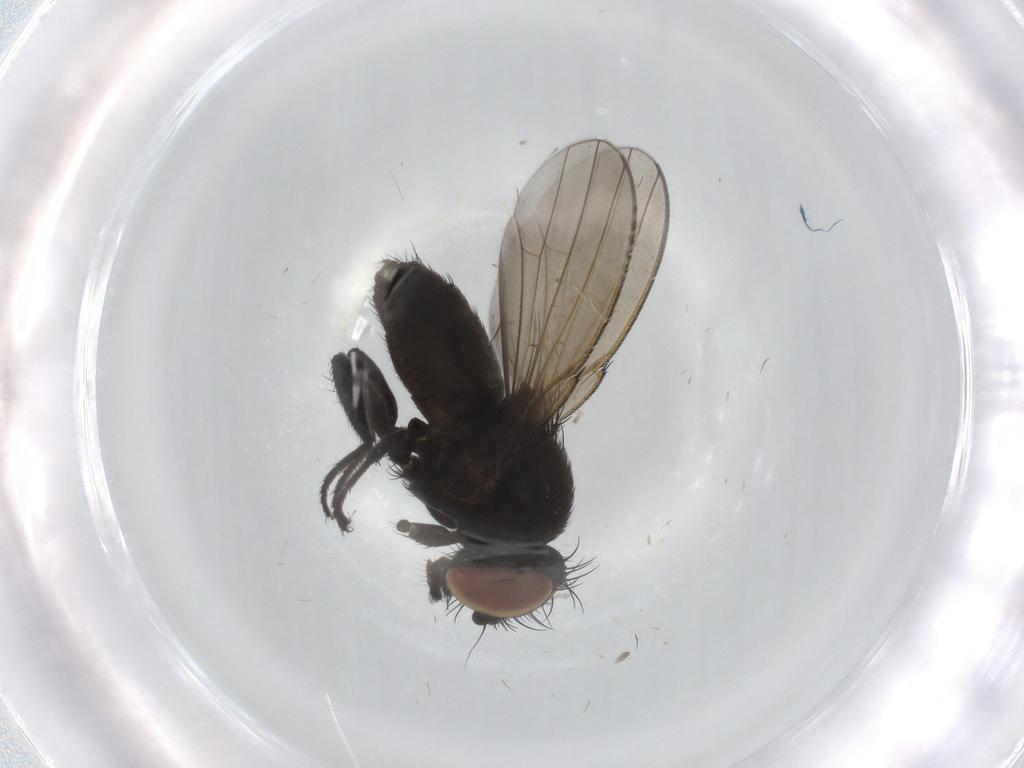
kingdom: Animalia
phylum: Arthropoda
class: Insecta
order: Diptera
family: Milichiidae
